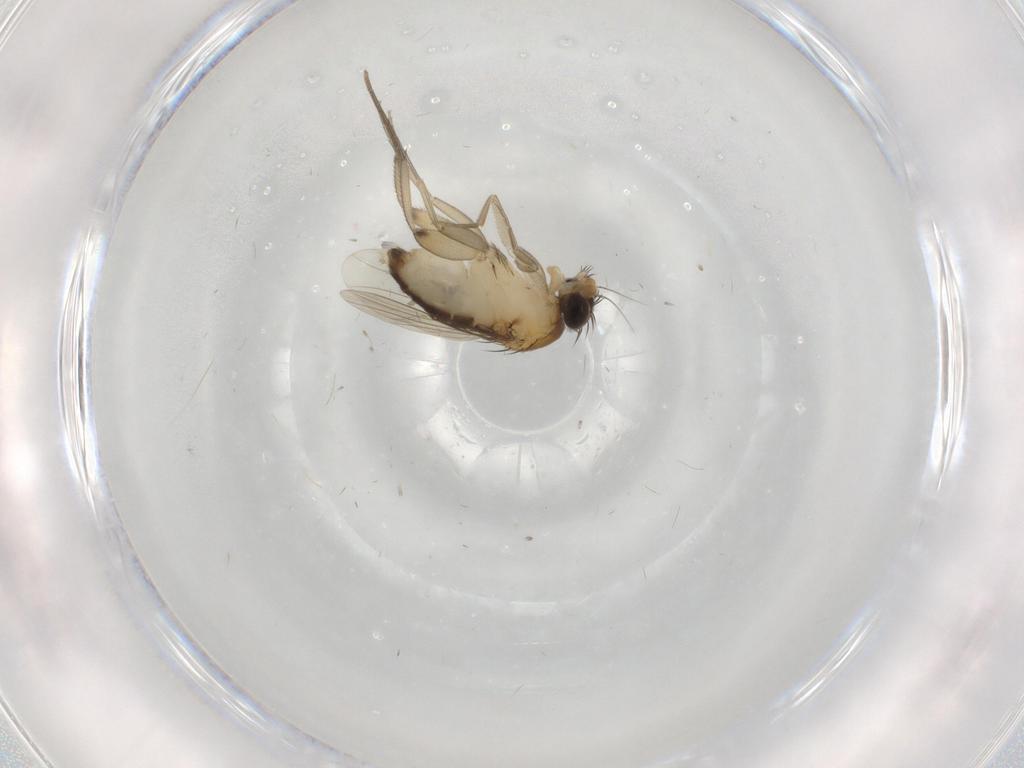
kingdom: Animalia
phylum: Arthropoda
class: Insecta
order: Diptera
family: Phoridae
